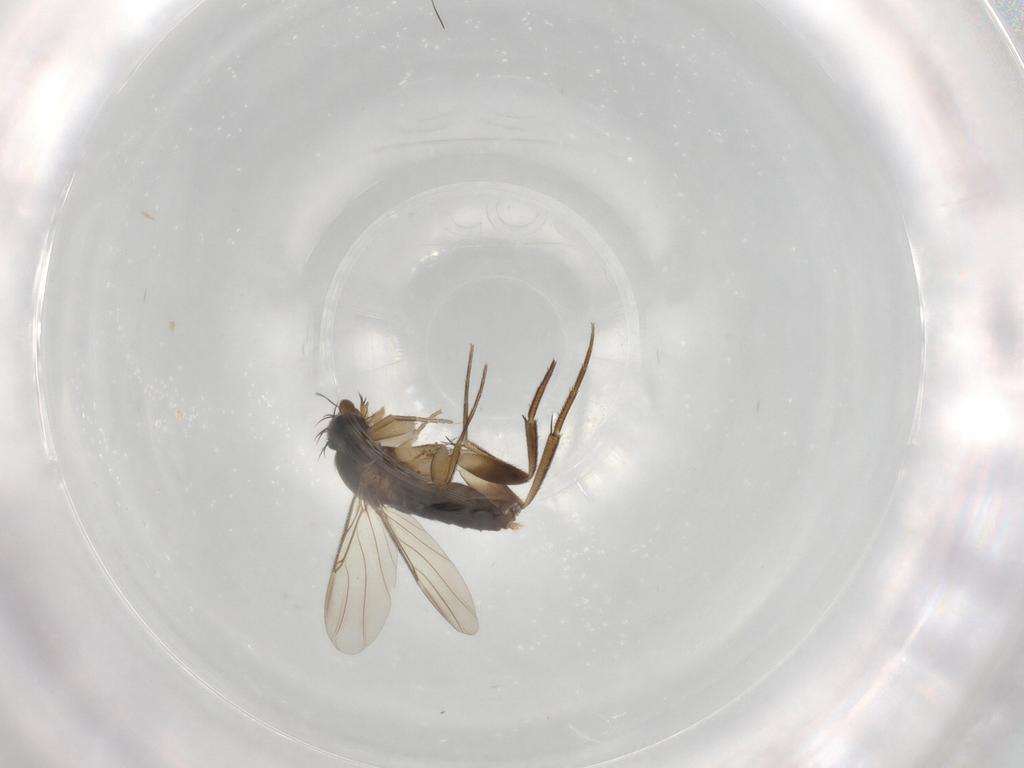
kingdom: Animalia
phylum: Arthropoda
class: Insecta
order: Diptera
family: Phoridae
